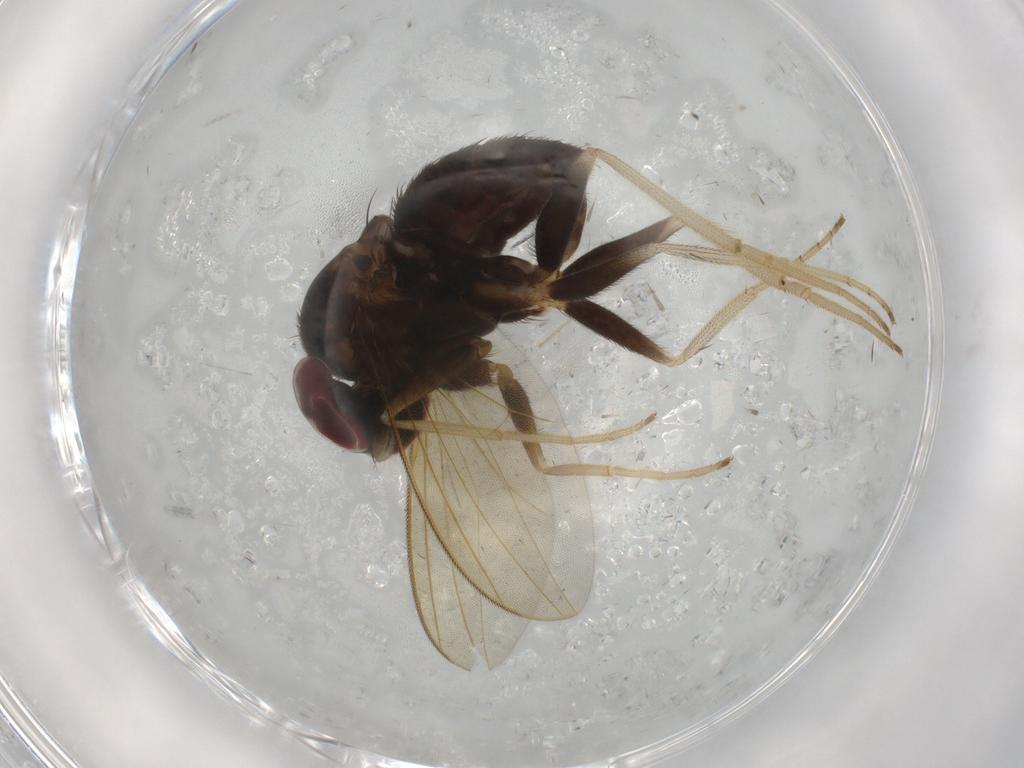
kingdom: Animalia
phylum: Arthropoda
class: Insecta
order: Diptera
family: Dolichopodidae
